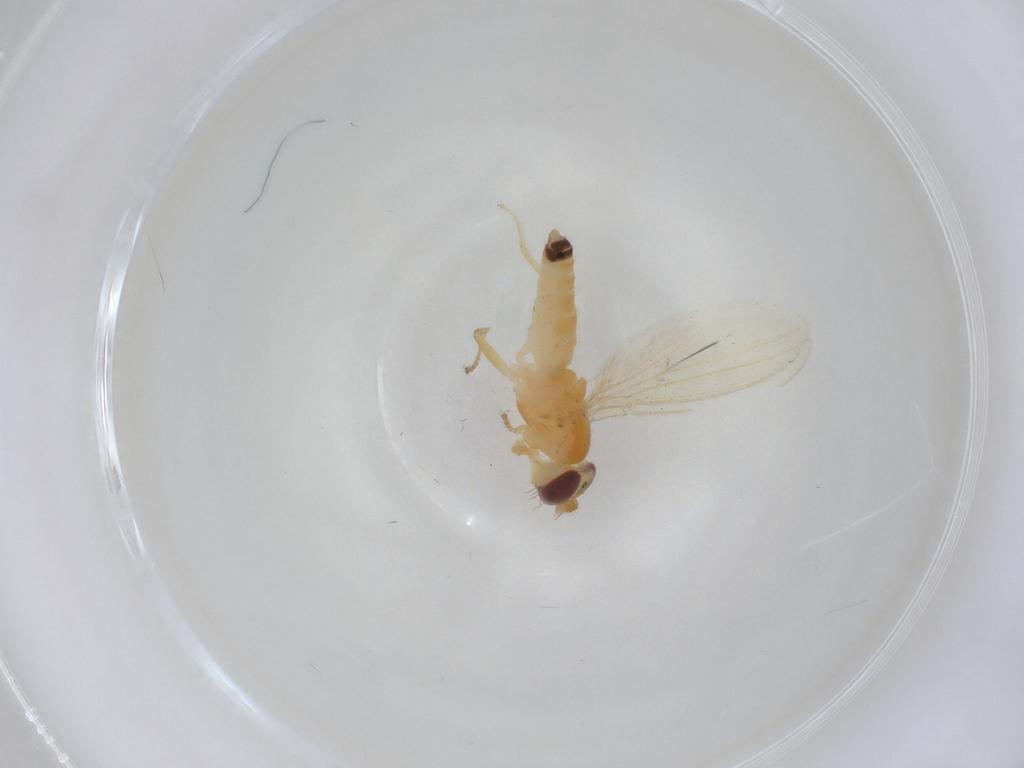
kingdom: Animalia
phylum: Arthropoda
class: Insecta
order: Diptera
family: Periscelididae
